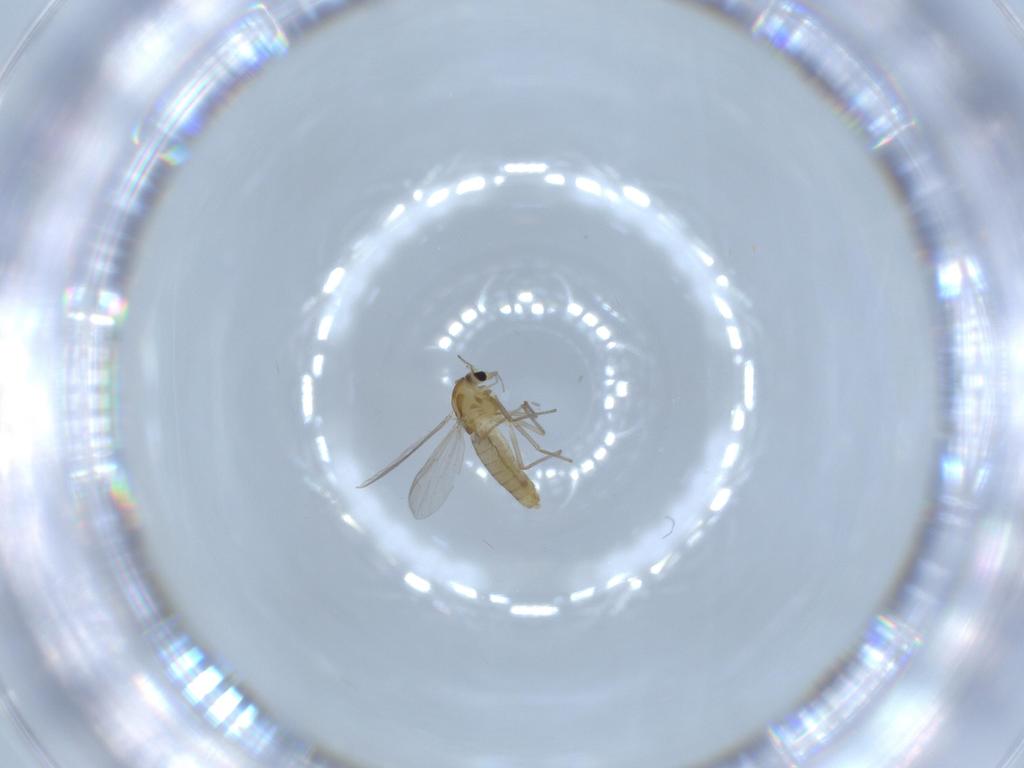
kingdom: Animalia
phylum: Arthropoda
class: Insecta
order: Diptera
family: Chironomidae
